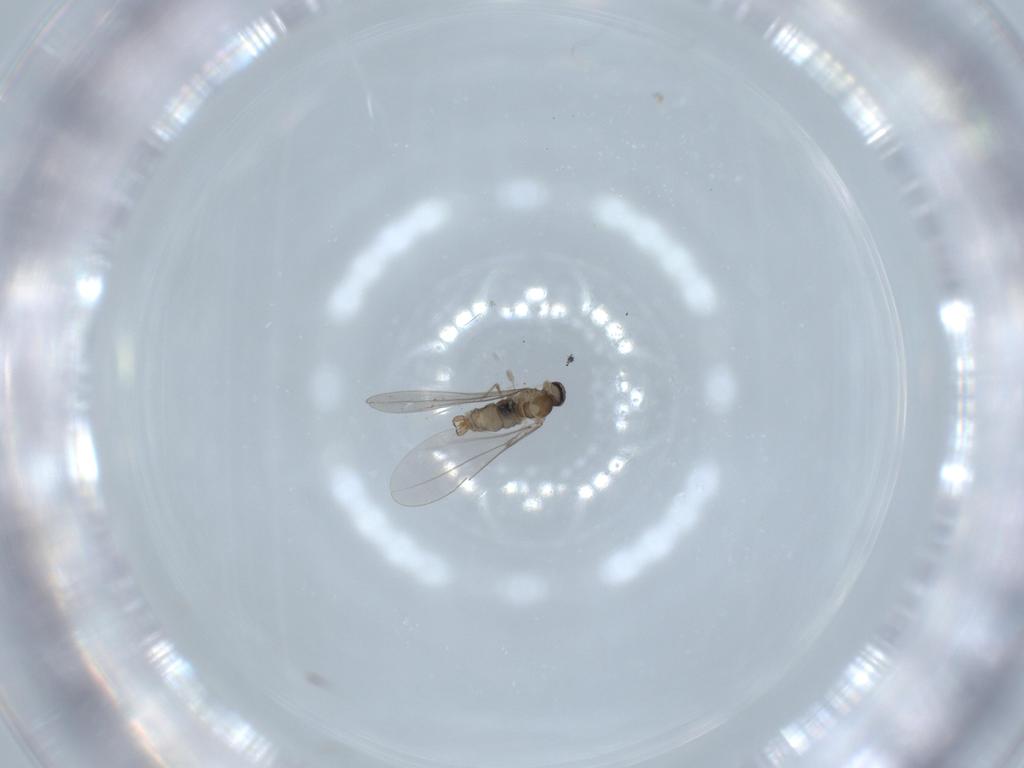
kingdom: Animalia
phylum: Arthropoda
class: Insecta
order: Diptera
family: Cecidomyiidae
